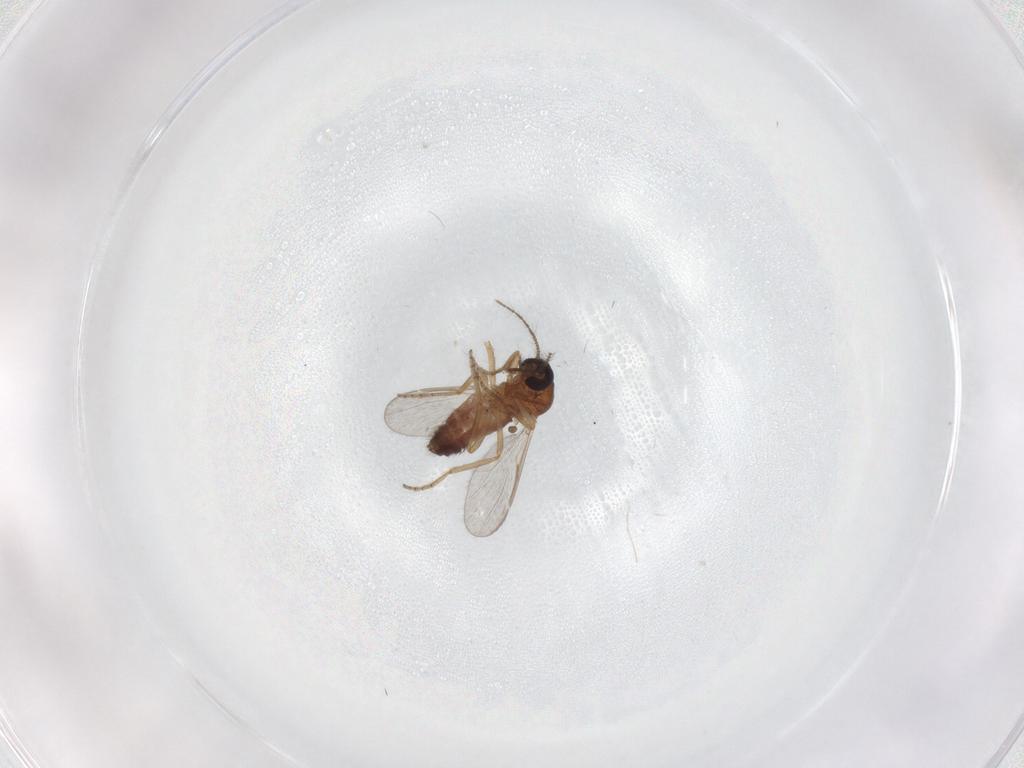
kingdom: Animalia
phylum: Arthropoda
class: Insecta
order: Diptera
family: Ceratopogonidae
